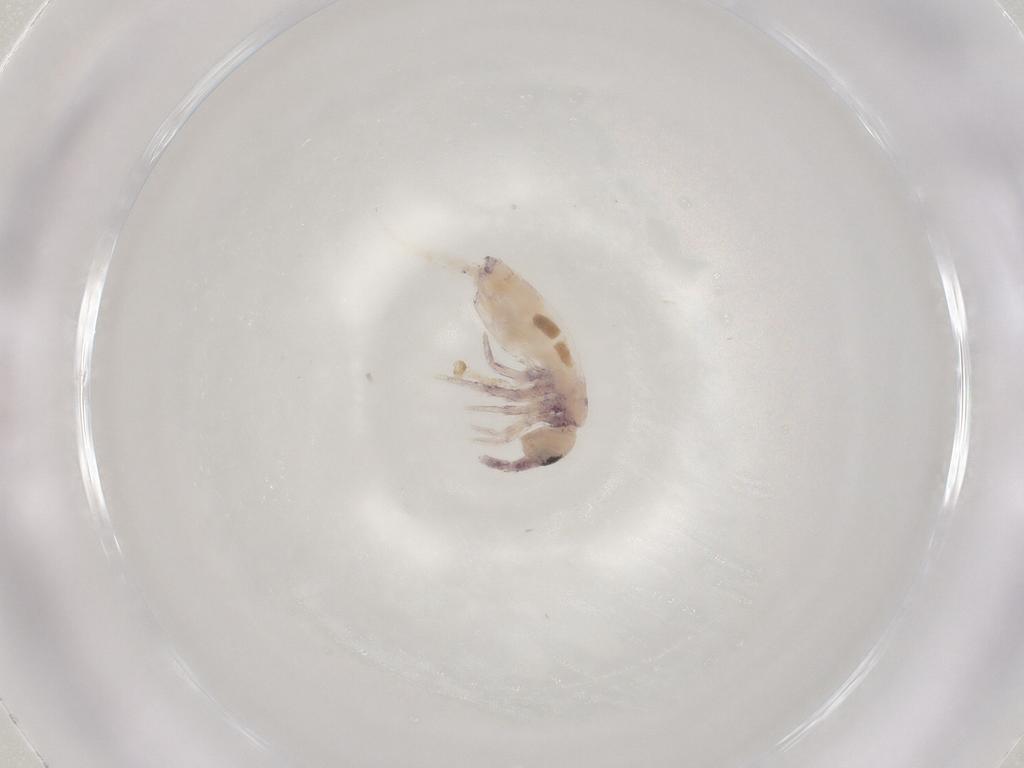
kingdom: Animalia
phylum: Arthropoda
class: Collembola
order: Entomobryomorpha
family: Entomobryidae
